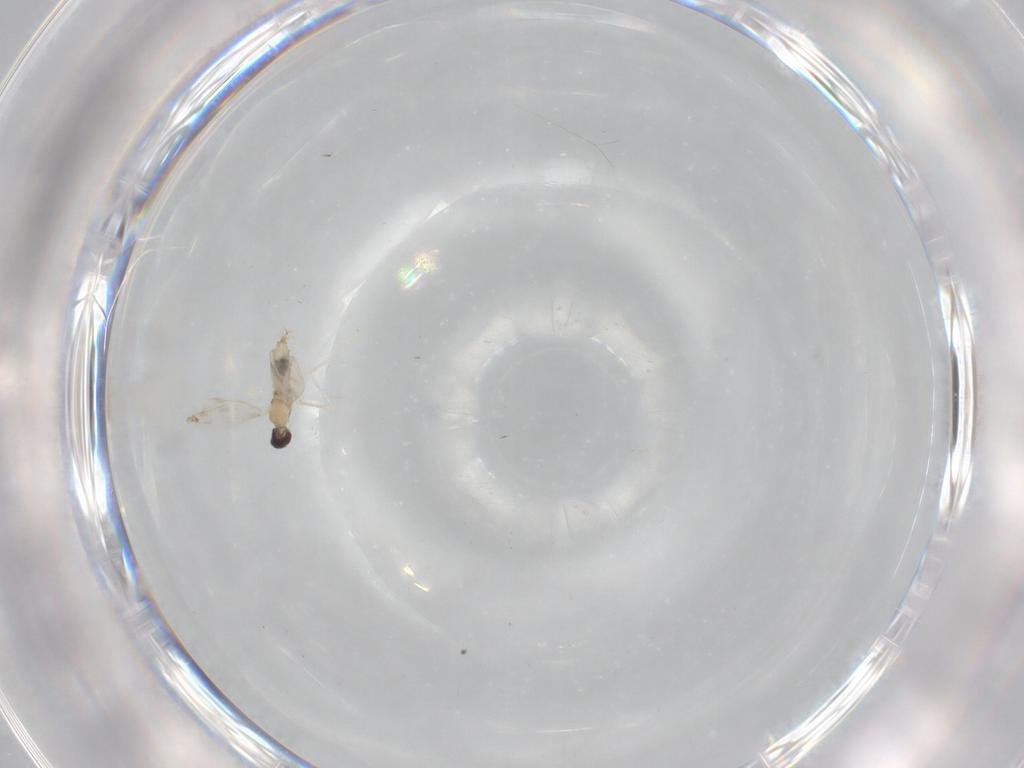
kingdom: Animalia
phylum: Arthropoda
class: Insecta
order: Diptera
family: Cecidomyiidae
